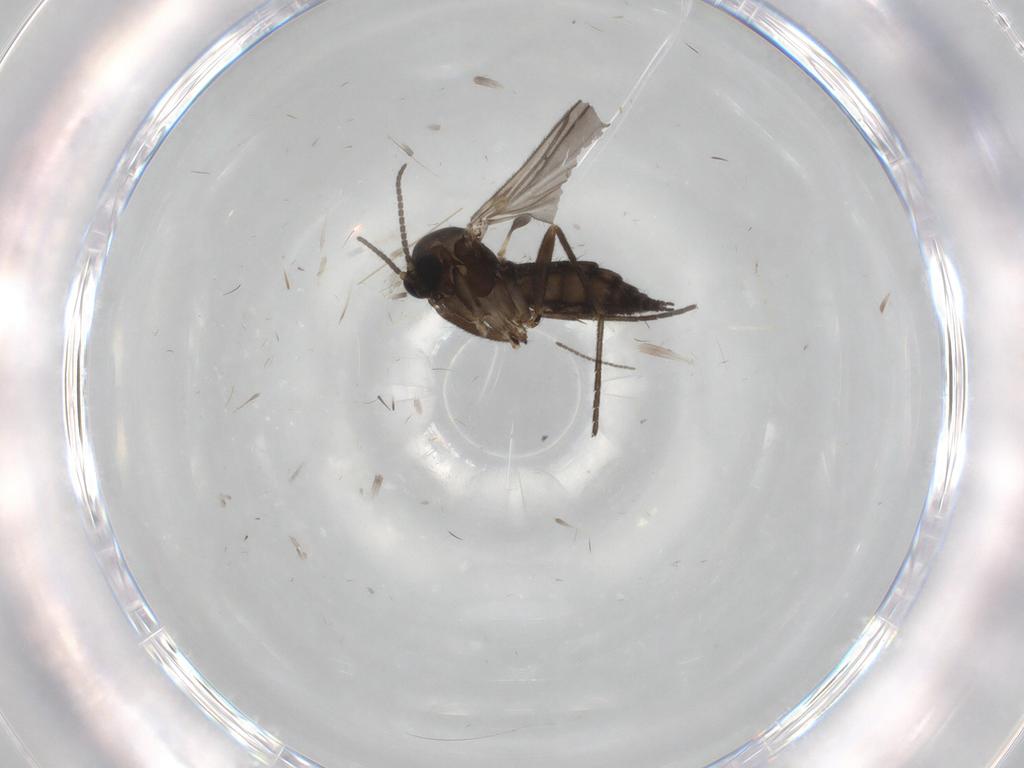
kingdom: Animalia
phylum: Arthropoda
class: Insecta
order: Diptera
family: Sciaridae
